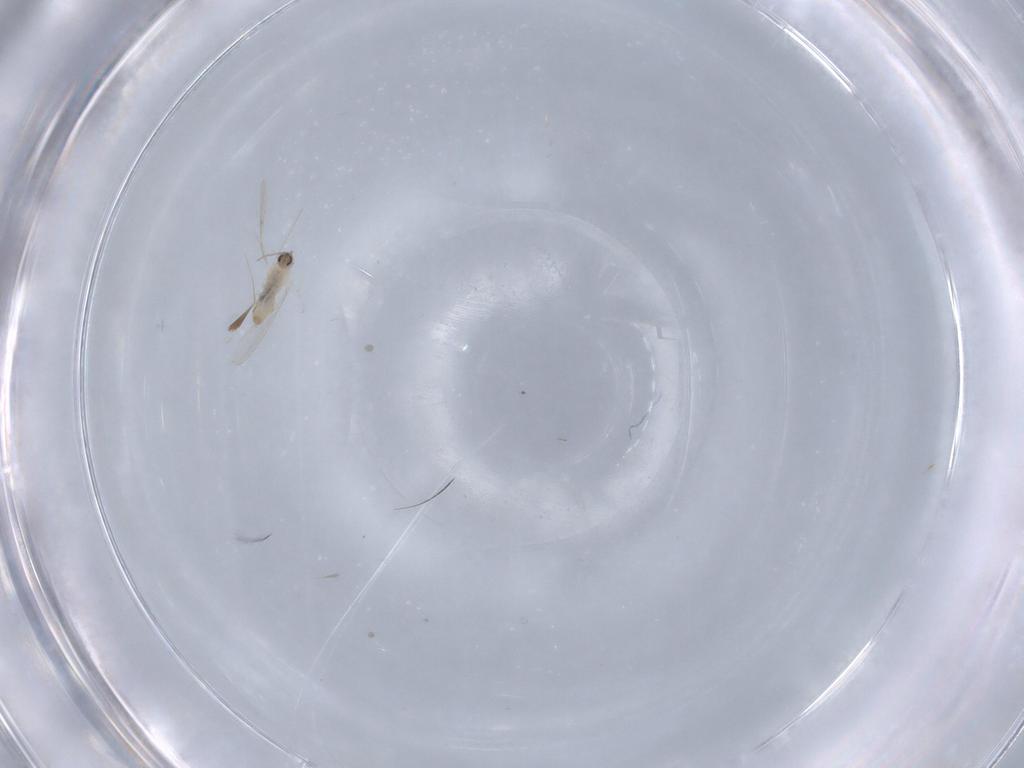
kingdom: Animalia
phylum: Arthropoda
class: Insecta
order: Diptera
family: Cecidomyiidae
